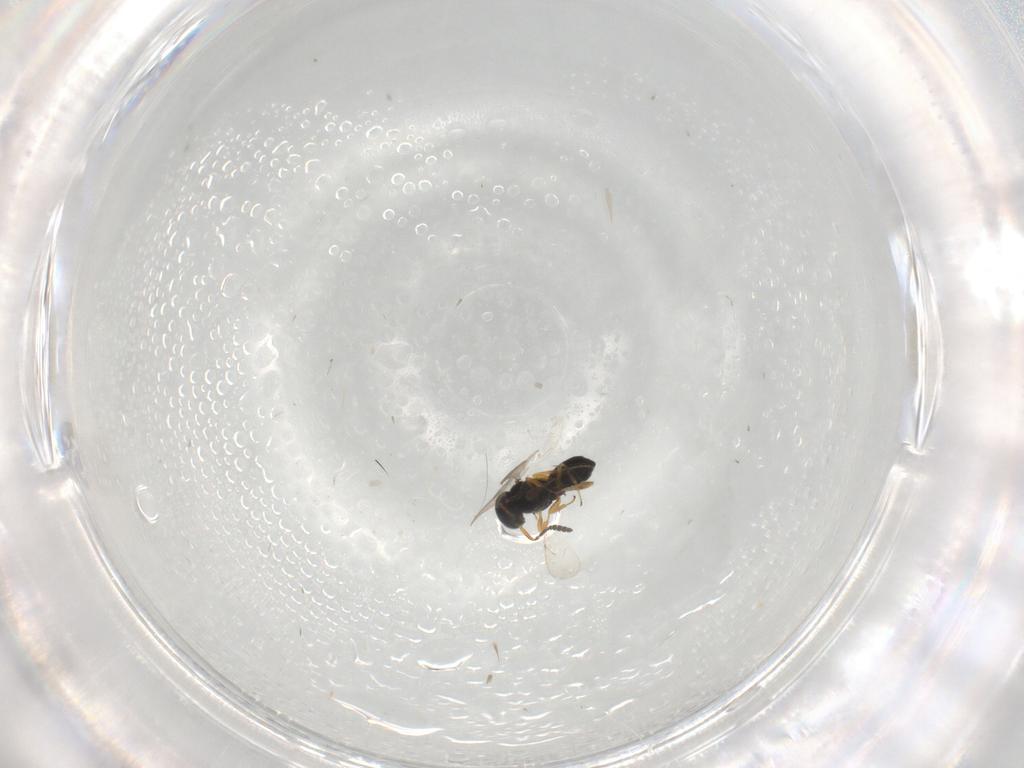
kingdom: Animalia
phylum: Arthropoda
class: Insecta
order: Hymenoptera
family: Scelionidae
